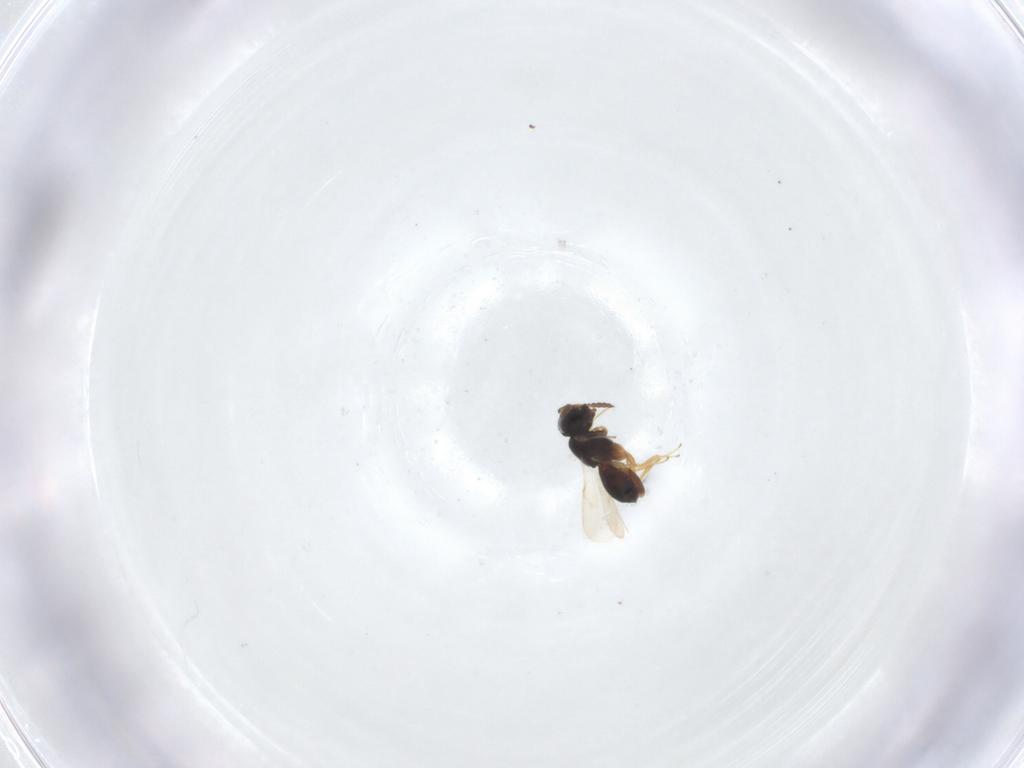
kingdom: Animalia
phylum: Arthropoda
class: Insecta
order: Hymenoptera
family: Scelionidae
